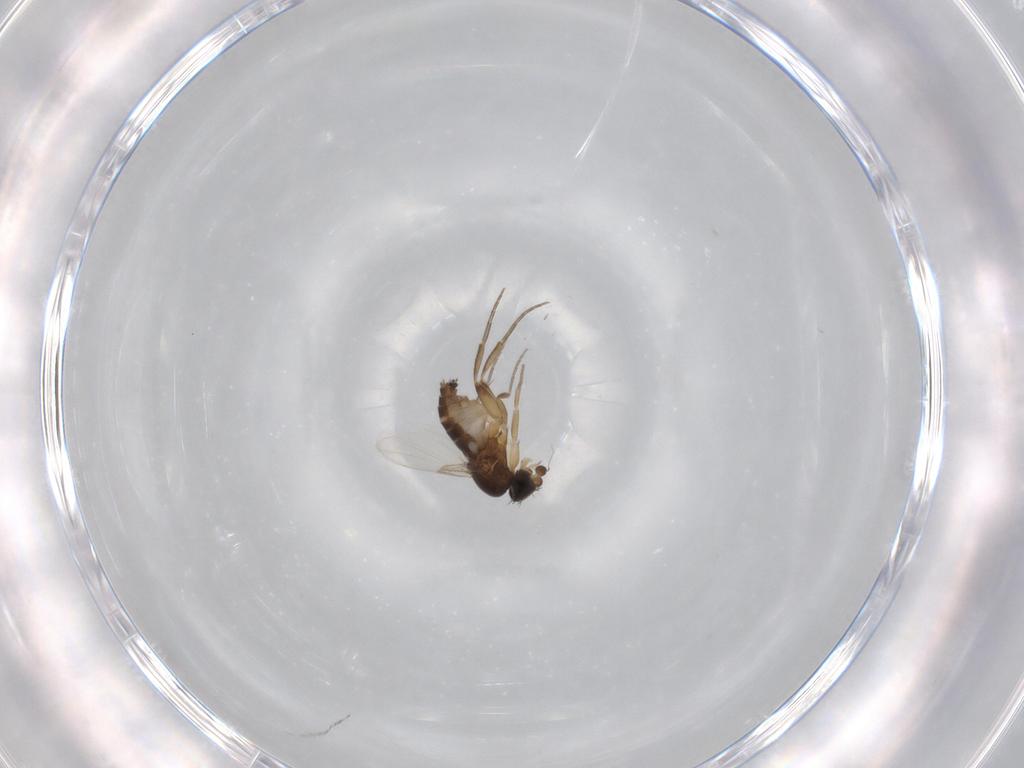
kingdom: Animalia
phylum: Arthropoda
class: Insecta
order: Diptera
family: Phoridae
